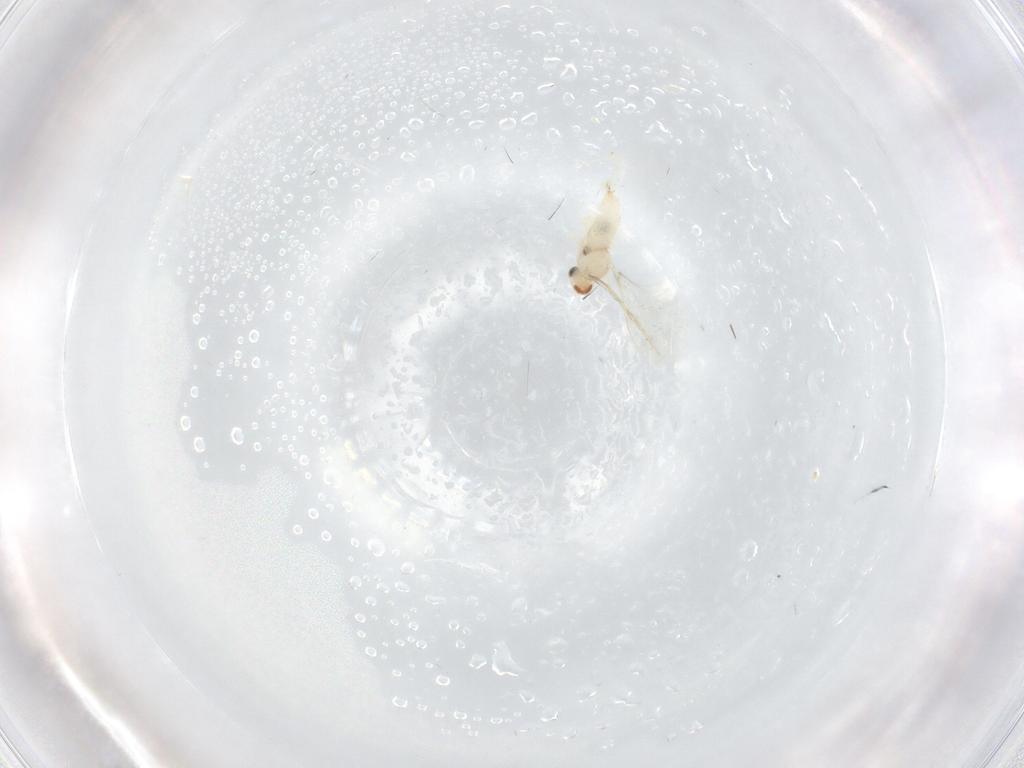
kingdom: Animalia
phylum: Arthropoda
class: Insecta
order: Diptera
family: Cecidomyiidae
